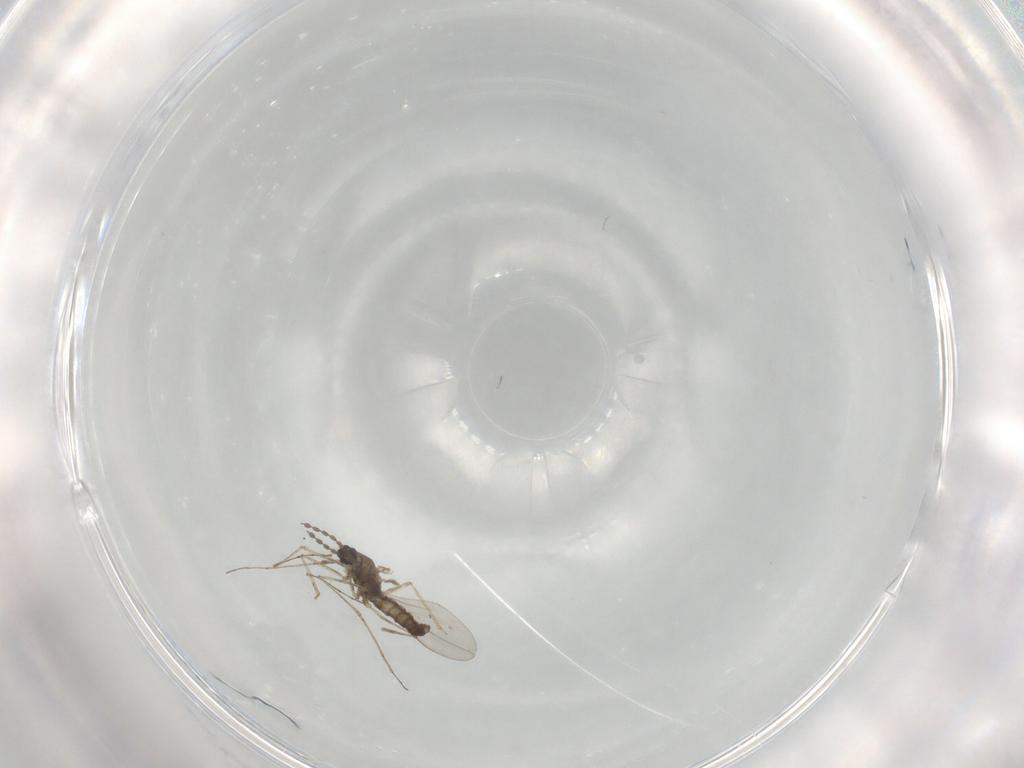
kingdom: Animalia
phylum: Arthropoda
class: Insecta
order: Diptera
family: Cecidomyiidae
